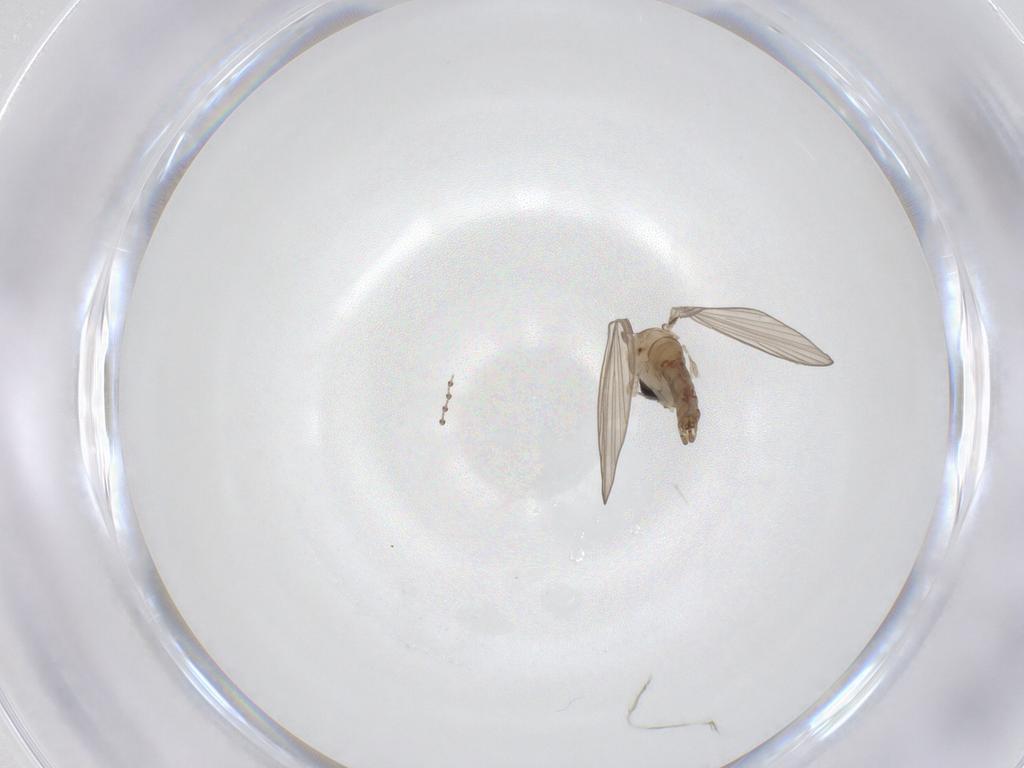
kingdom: Animalia
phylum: Arthropoda
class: Insecta
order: Diptera
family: Psychodidae
